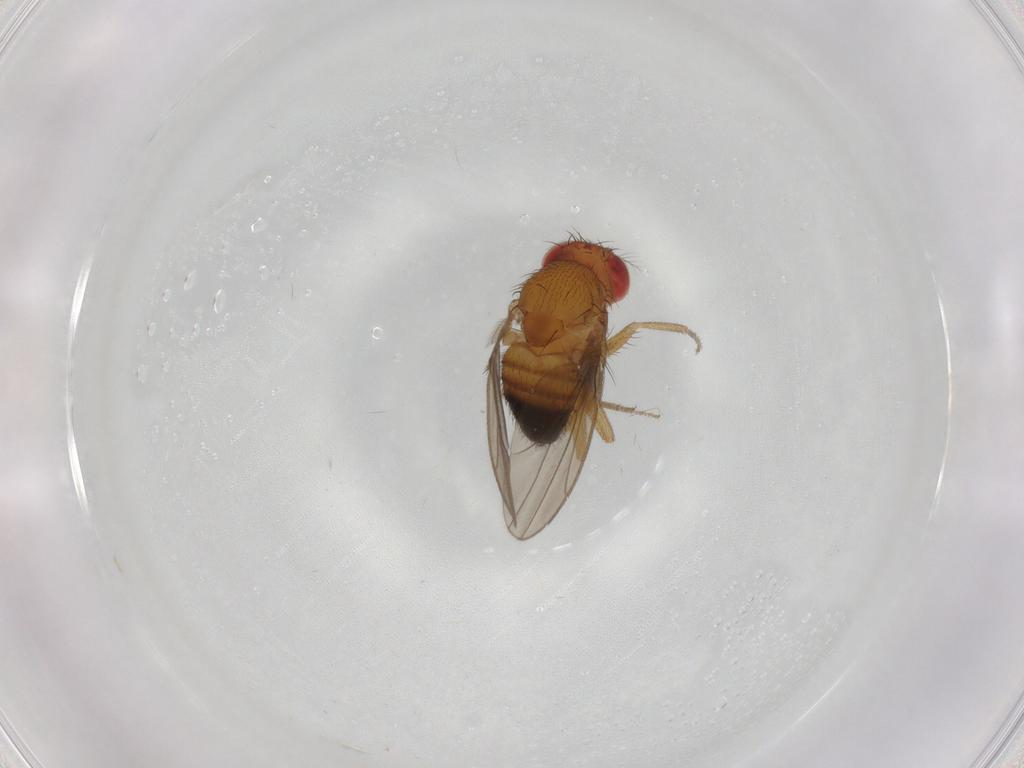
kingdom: Animalia
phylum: Arthropoda
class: Insecta
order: Diptera
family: Drosophilidae
